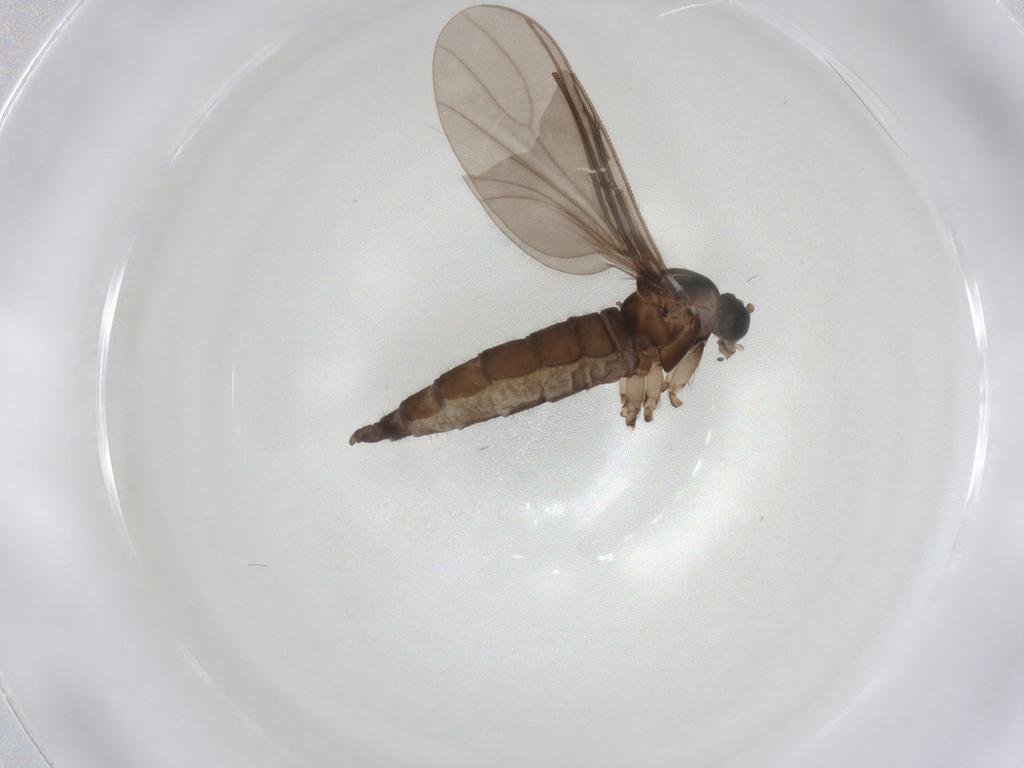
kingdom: Animalia
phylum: Arthropoda
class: Insecta
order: Diptera
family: Sciaridae
